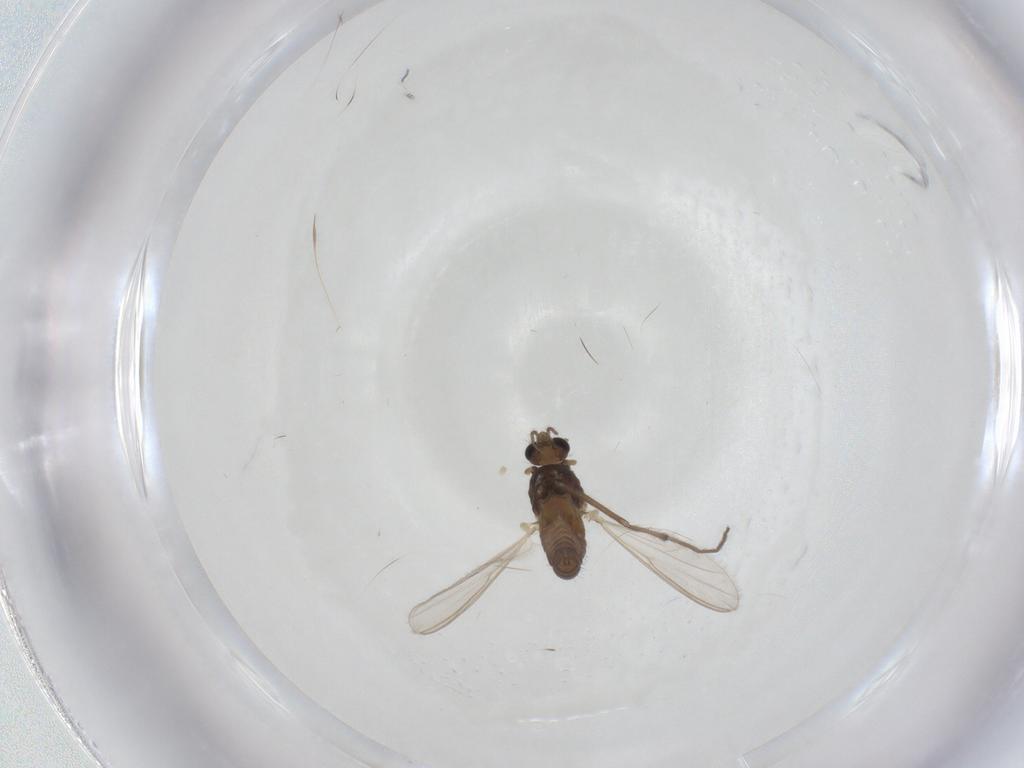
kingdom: Animalia
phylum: Arthropoda
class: Insecta
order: Diptera
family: Chironomidae
